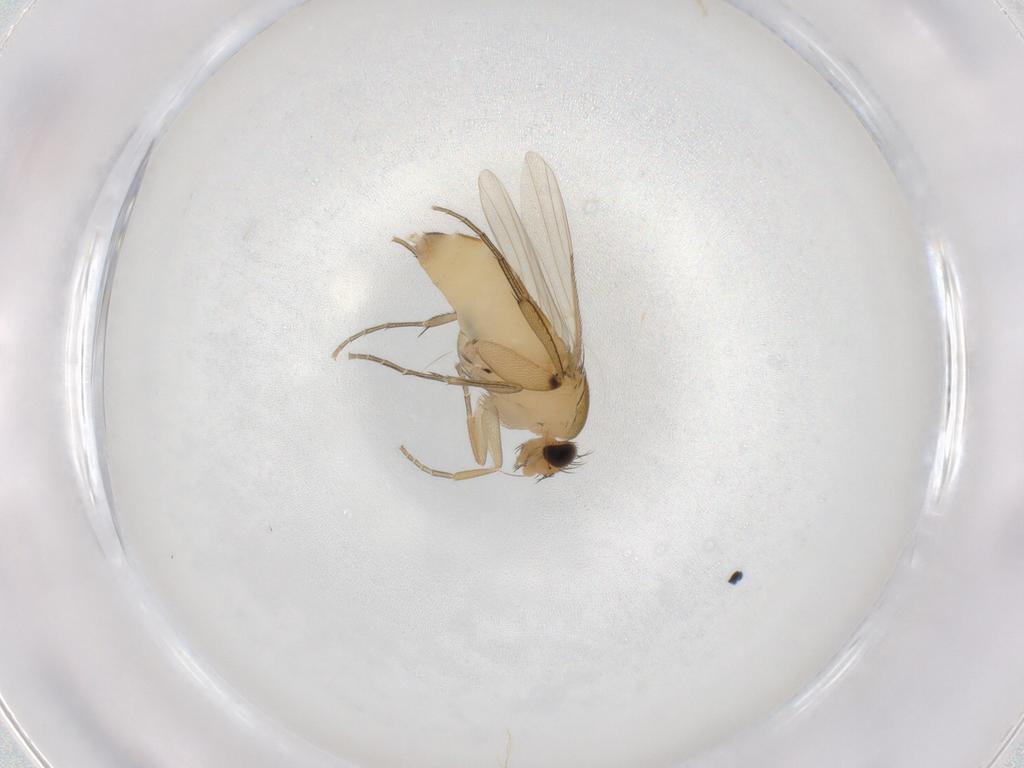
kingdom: Animalia
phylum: Arthropoda
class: Insecta
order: Diptera
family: Phoridae
